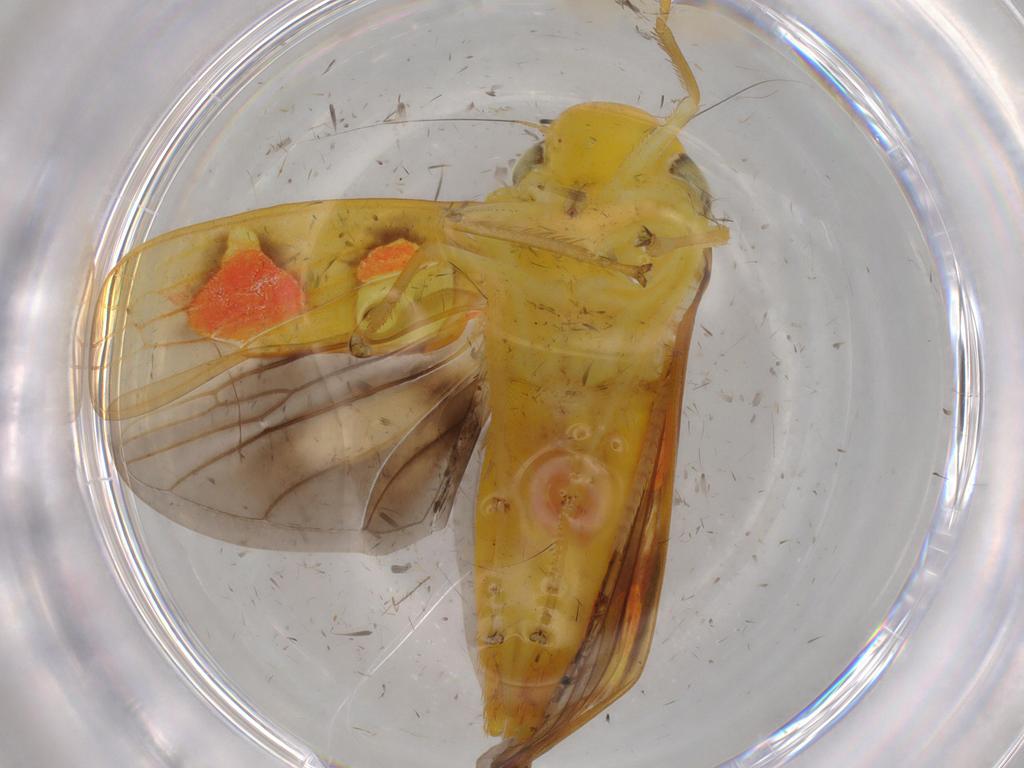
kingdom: Animalia
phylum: Arthropoda
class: Insecta
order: Hemiptera
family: Cicadellidae
